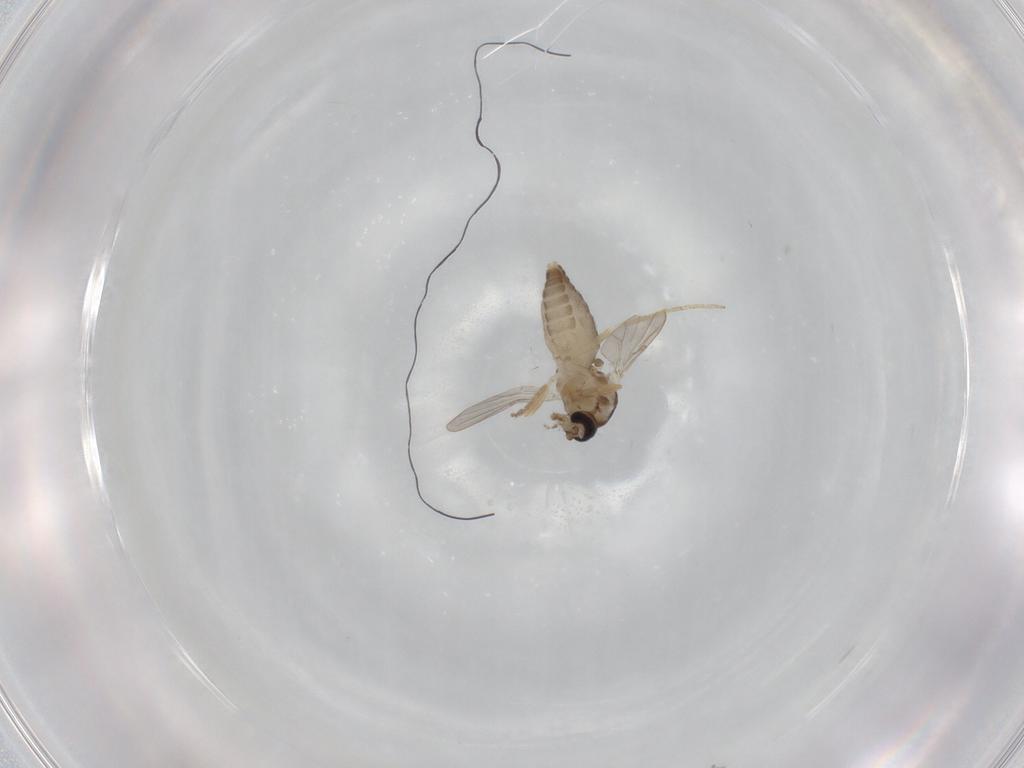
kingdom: Animalia
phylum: Arthropoda
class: Insecta
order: Diptera
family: Ceratopogonidae
